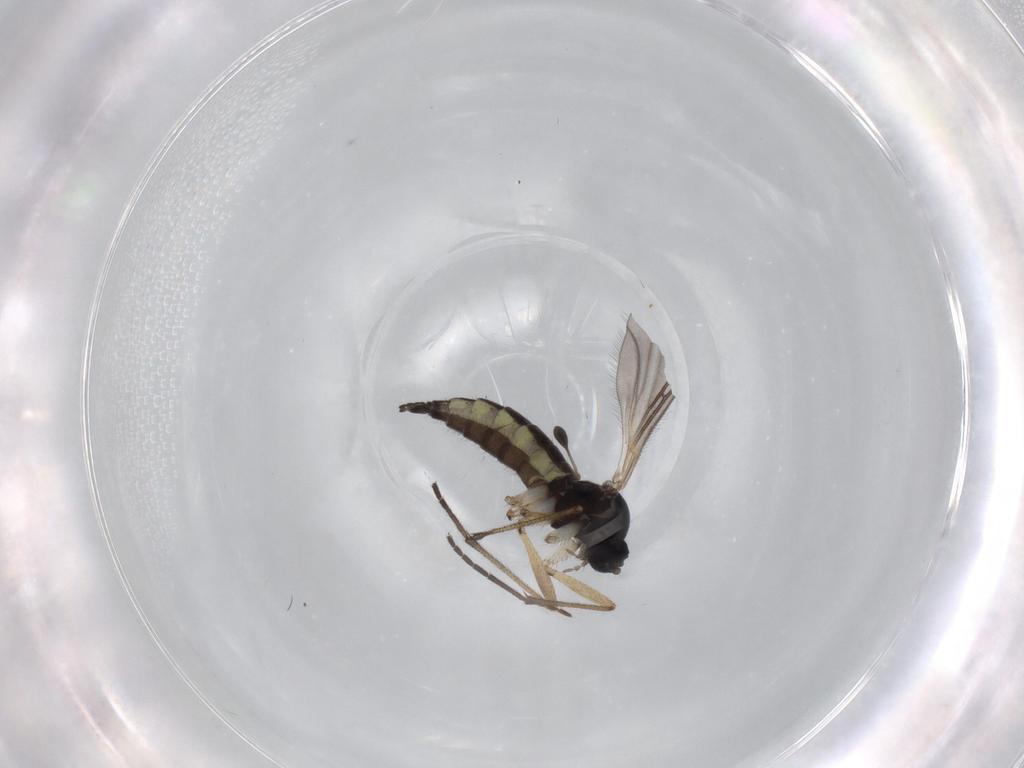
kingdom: Animalia
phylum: Arthropoda
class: Insecta
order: Diptera
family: Sciaridae
